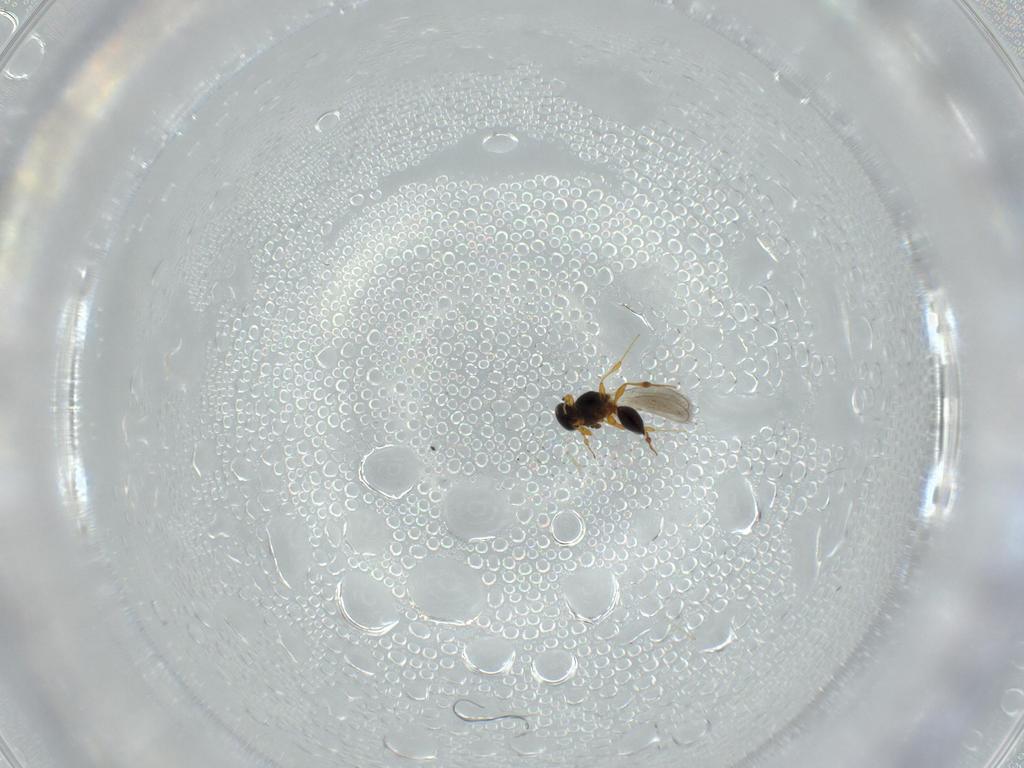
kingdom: Animalia
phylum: Arthropoda
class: Insecta
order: Hymenoptera
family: Platygastridae
